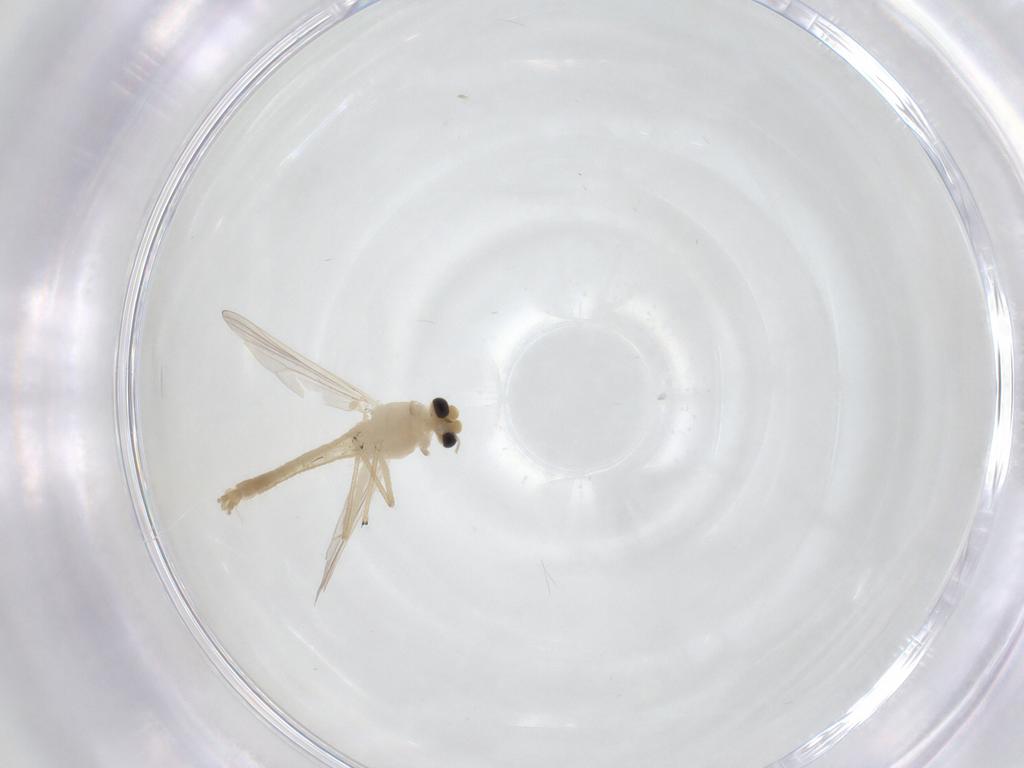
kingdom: Animalia
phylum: Arthropoda
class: Insecta
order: Diptera
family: Chironomidae
